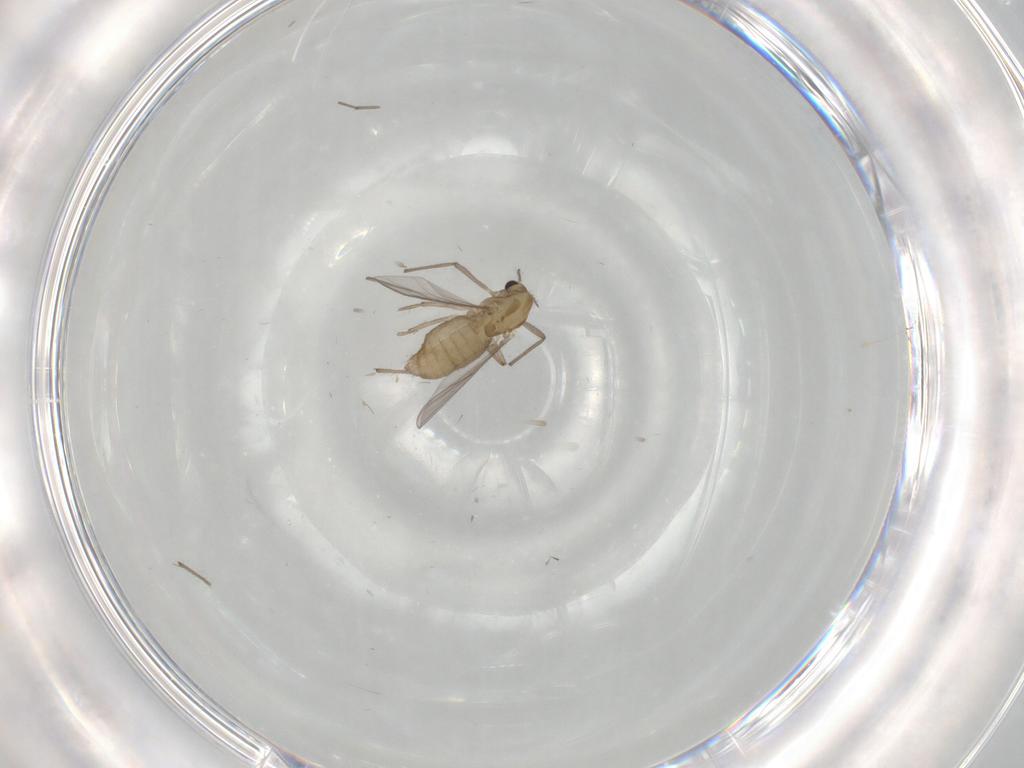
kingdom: Animalia
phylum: Arthropoda
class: Insecta
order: Diptera
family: Chironomidae
